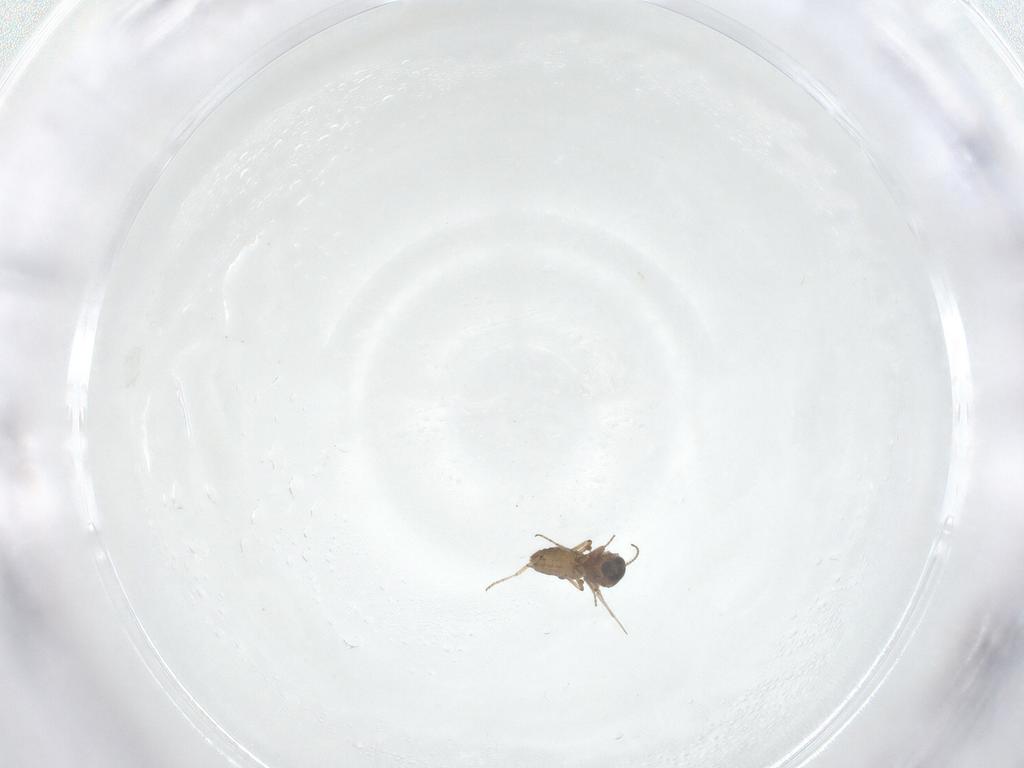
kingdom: Animalia
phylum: Arthropoda
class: Insecta
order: Diptera
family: Ceratopogonidae
